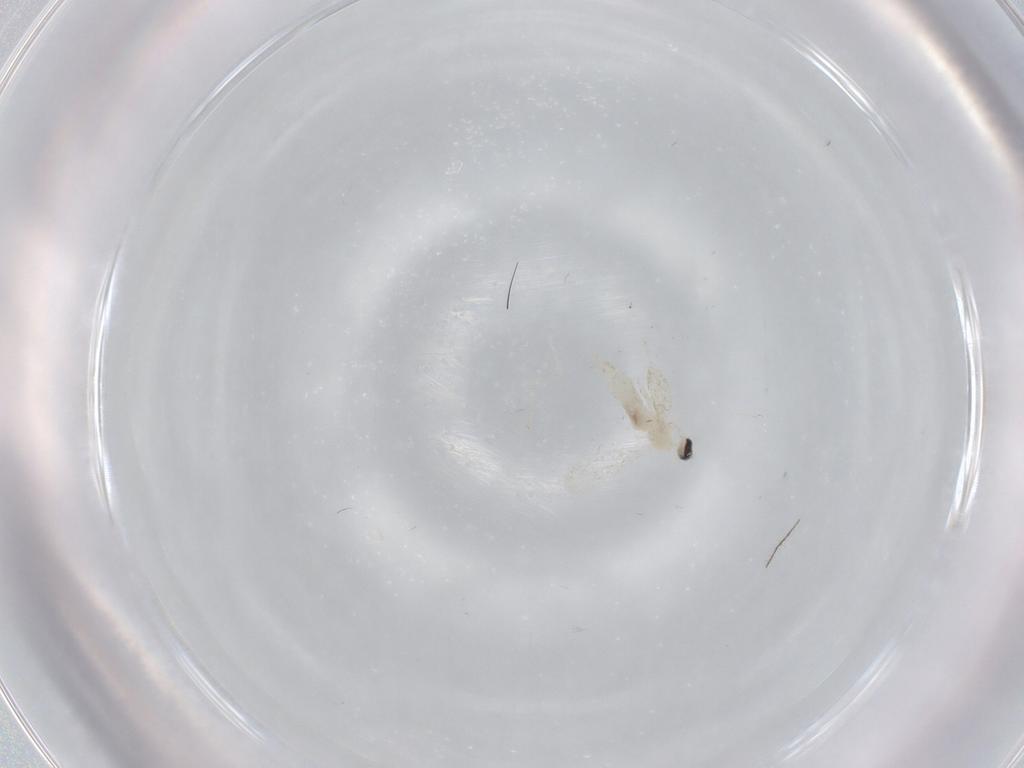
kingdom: Animalia
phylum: Arthropoda
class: Insecta
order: Diptera
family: Cecidomyiidae
